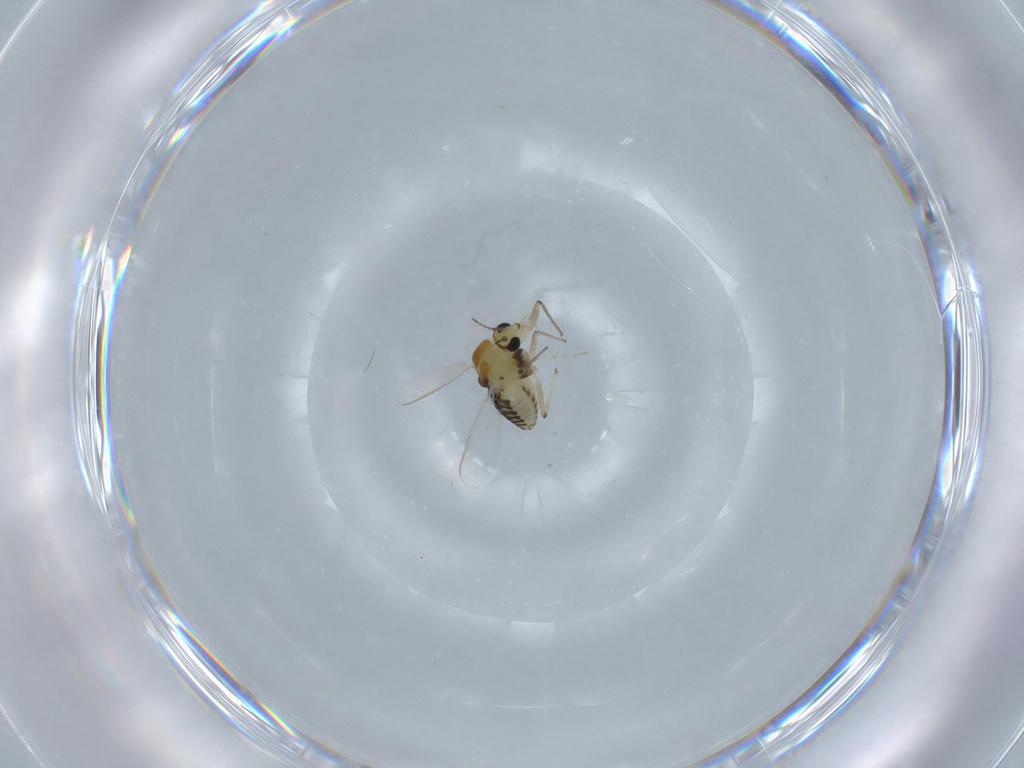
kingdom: Animalia
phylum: Arthropoda
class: Insecta
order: Diptera
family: Chironomidae
